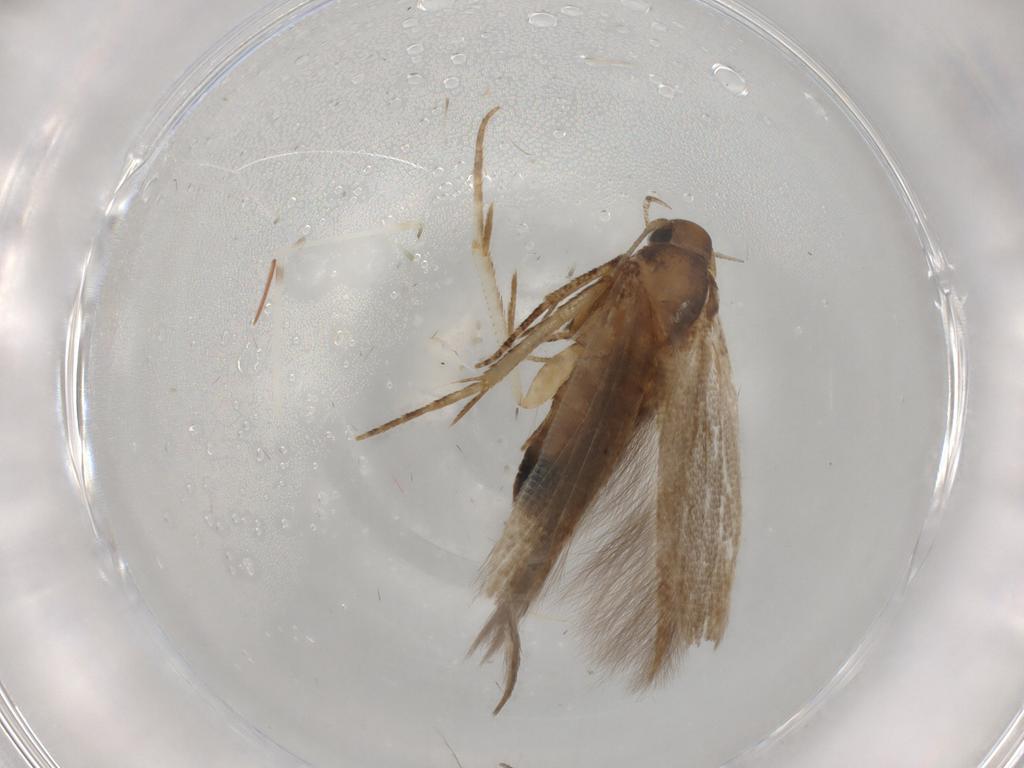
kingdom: Animalia
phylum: Arthropoda
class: Insecta
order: Lepidoptera
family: Cosmopterigidae
